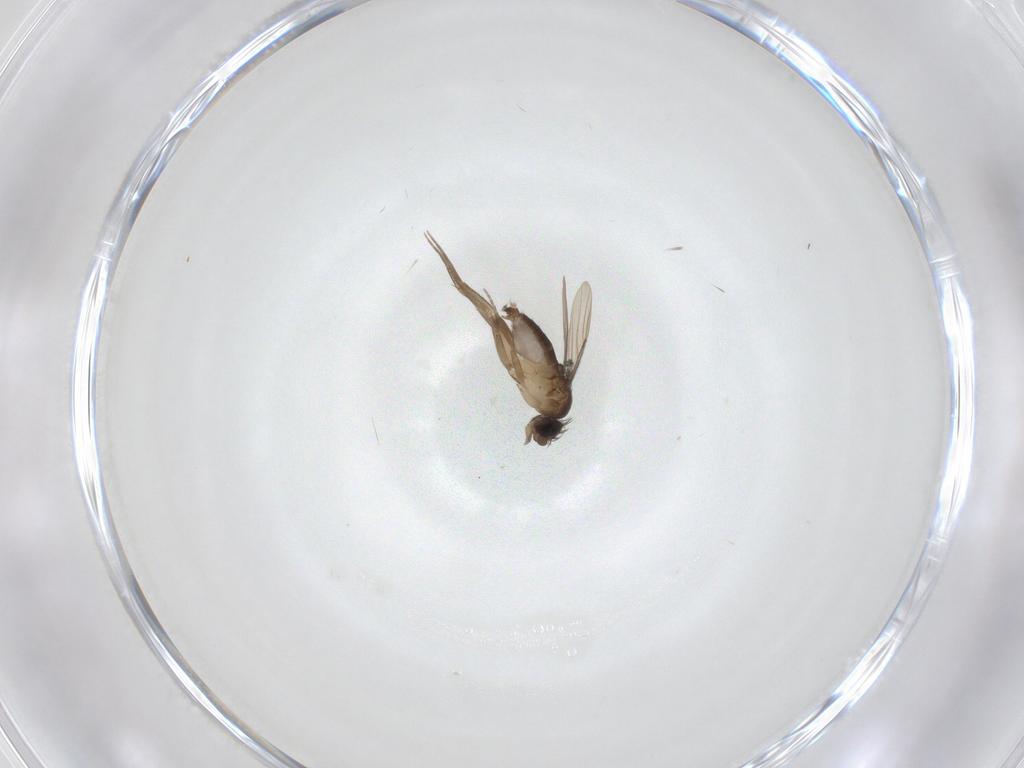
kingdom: Animalia
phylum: Arthropoda
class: Insecta
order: Diptera
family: Phoridae
